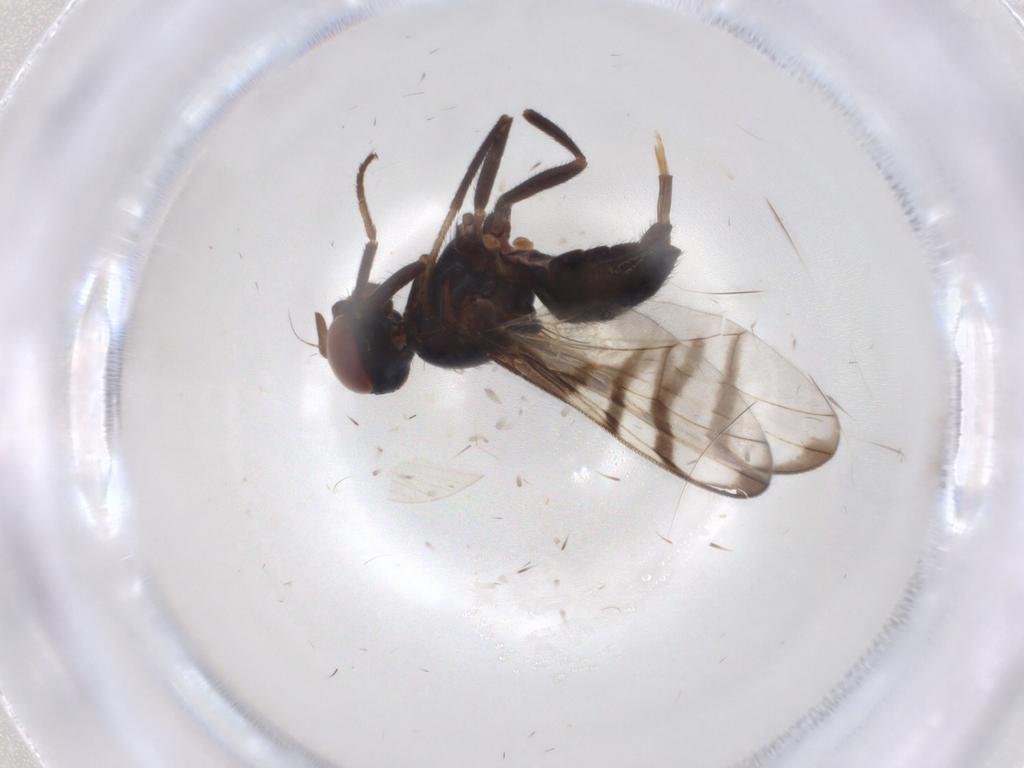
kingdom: Animalia
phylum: Arthropoda
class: Insecta
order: Diptera
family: Platystomatidae
